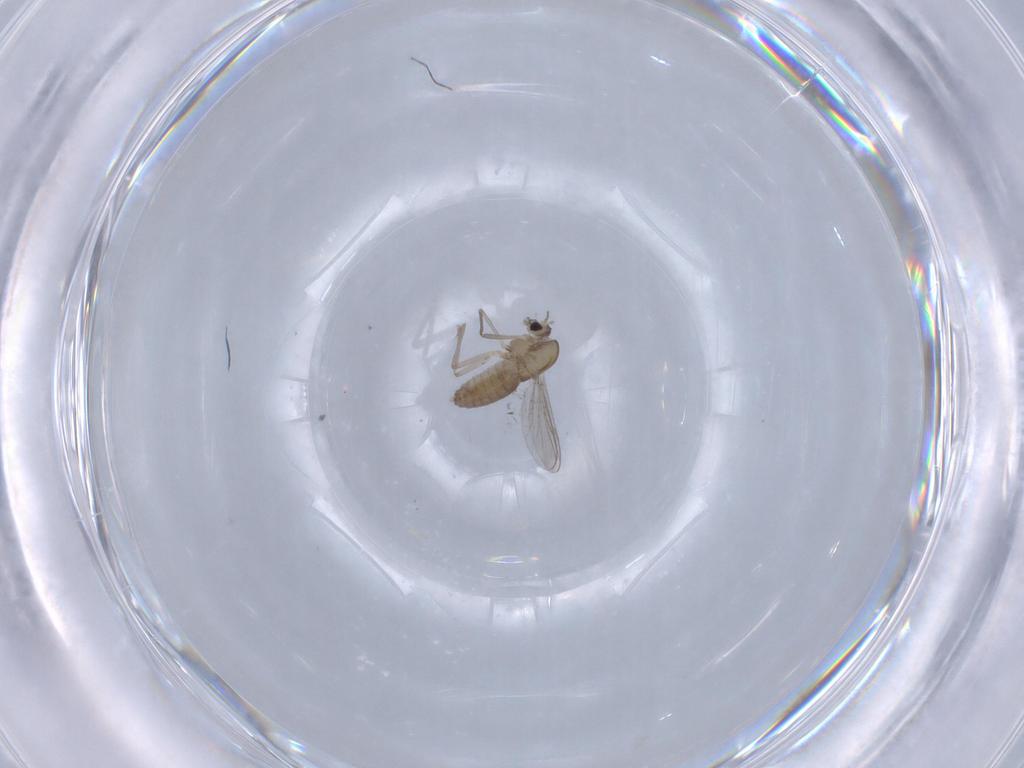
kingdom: Animalia
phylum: Arthropoda
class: Insecta
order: Diptera
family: Chironomidae
